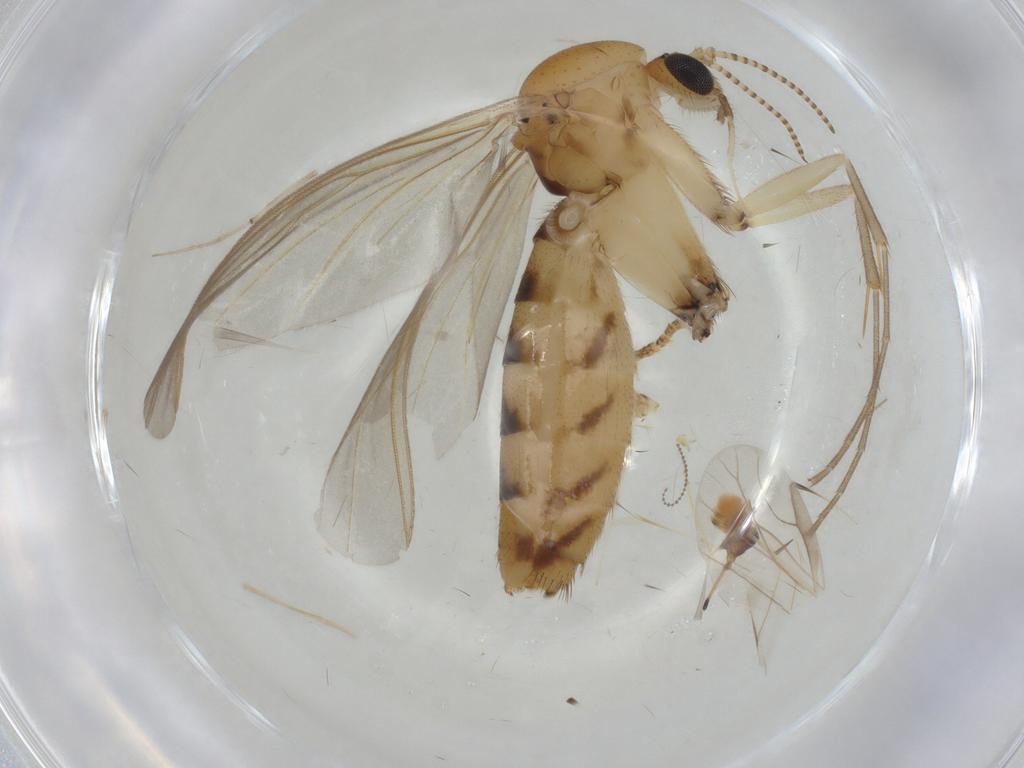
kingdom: Animalia
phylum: Arthropoda
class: Insecta
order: Diptera
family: Mycetophilidae
